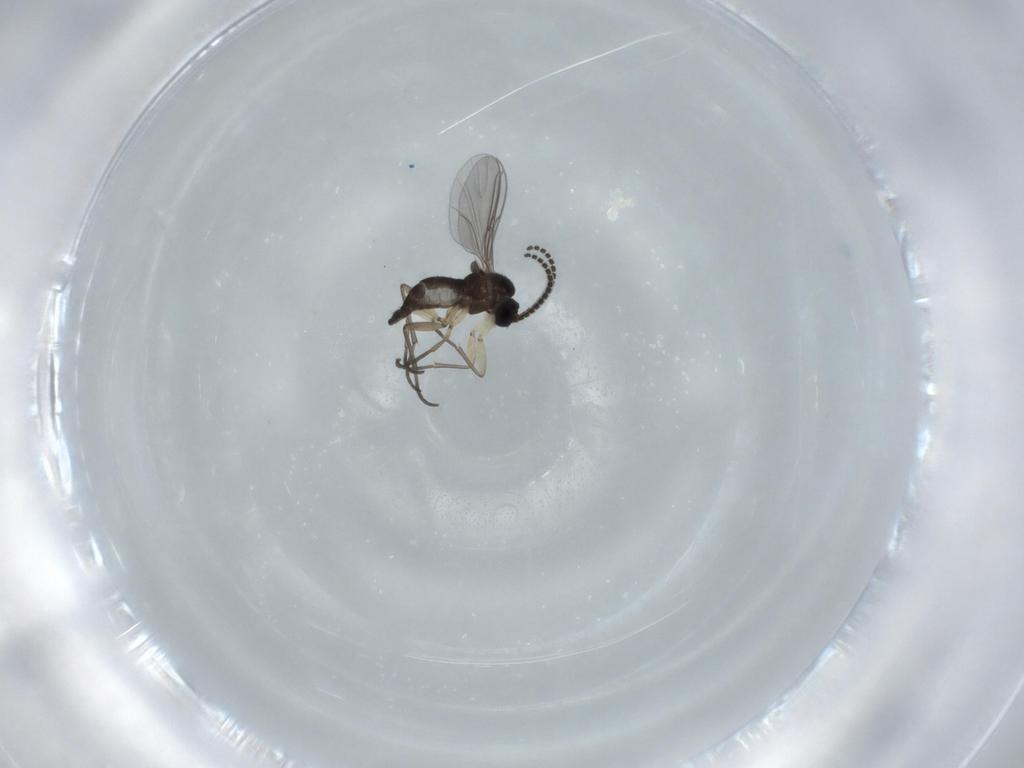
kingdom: Animalia
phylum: Arthropoda
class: Insecta
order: Diptera
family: Sciaridae
